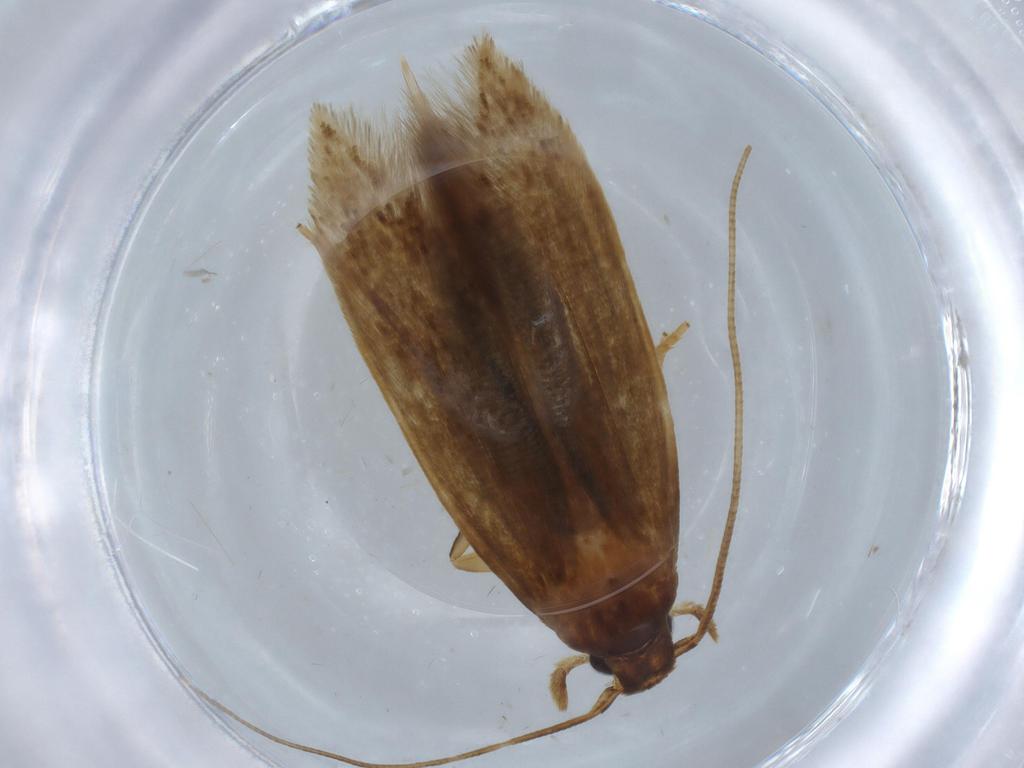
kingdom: Animalia
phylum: Arthropoda
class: Insecta
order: Lepidoptera
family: Tineidae
